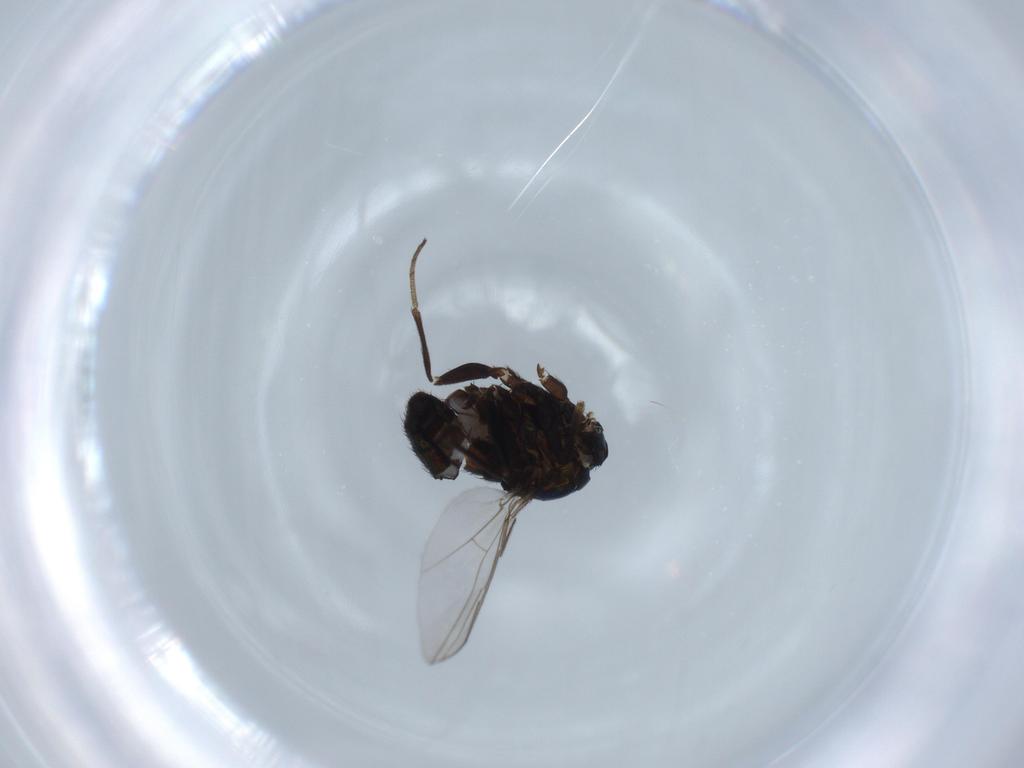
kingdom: Animalia
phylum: Arthropoda
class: Insecta
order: Diptera
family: Dolichopodidae
